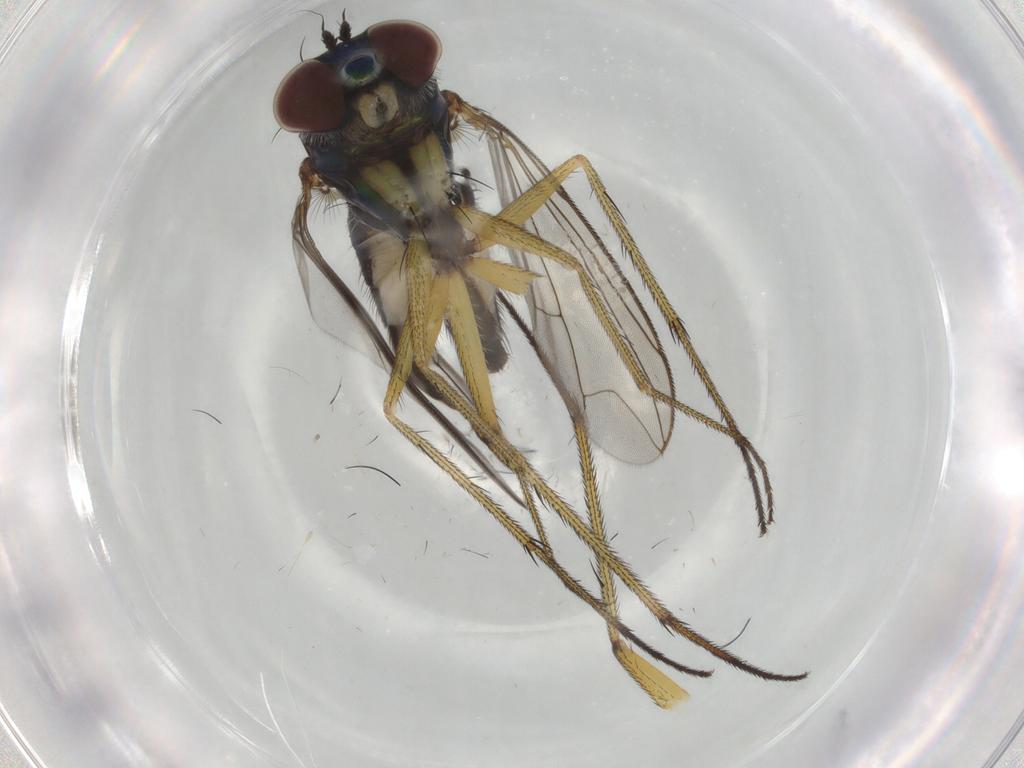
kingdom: Animalia
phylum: Arthropoda
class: Insecta
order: Diptera
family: Dolichopodidae
